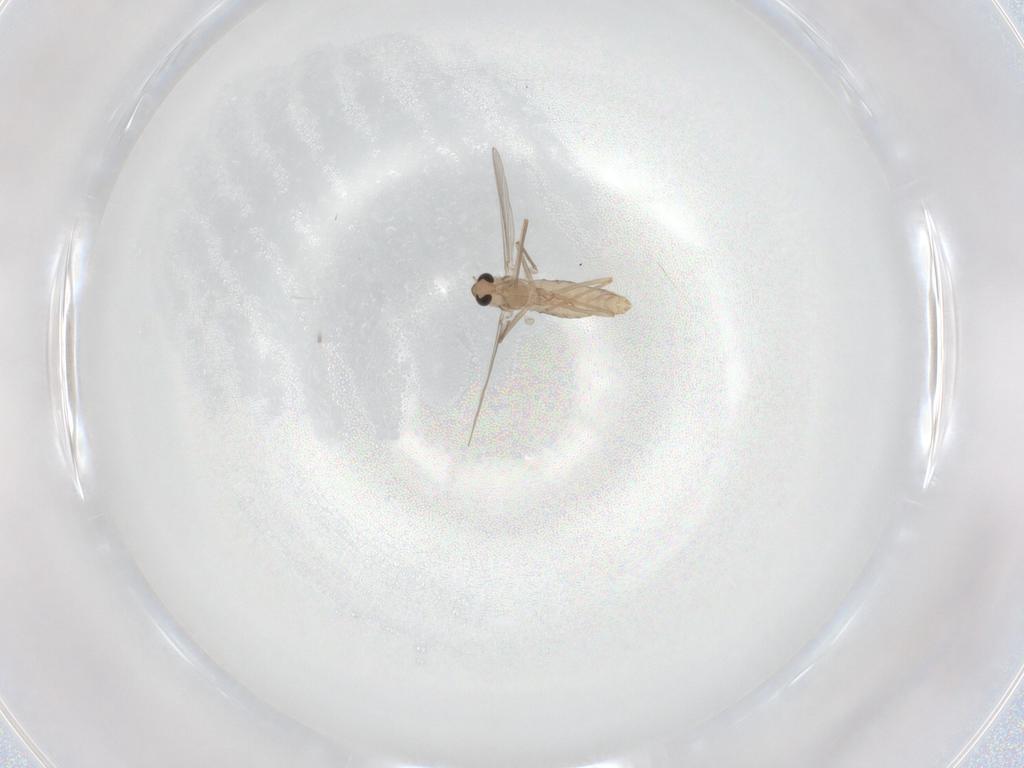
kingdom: Animalia
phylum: Arthropoda
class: Insecta
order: Diptera
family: Chironomidae
